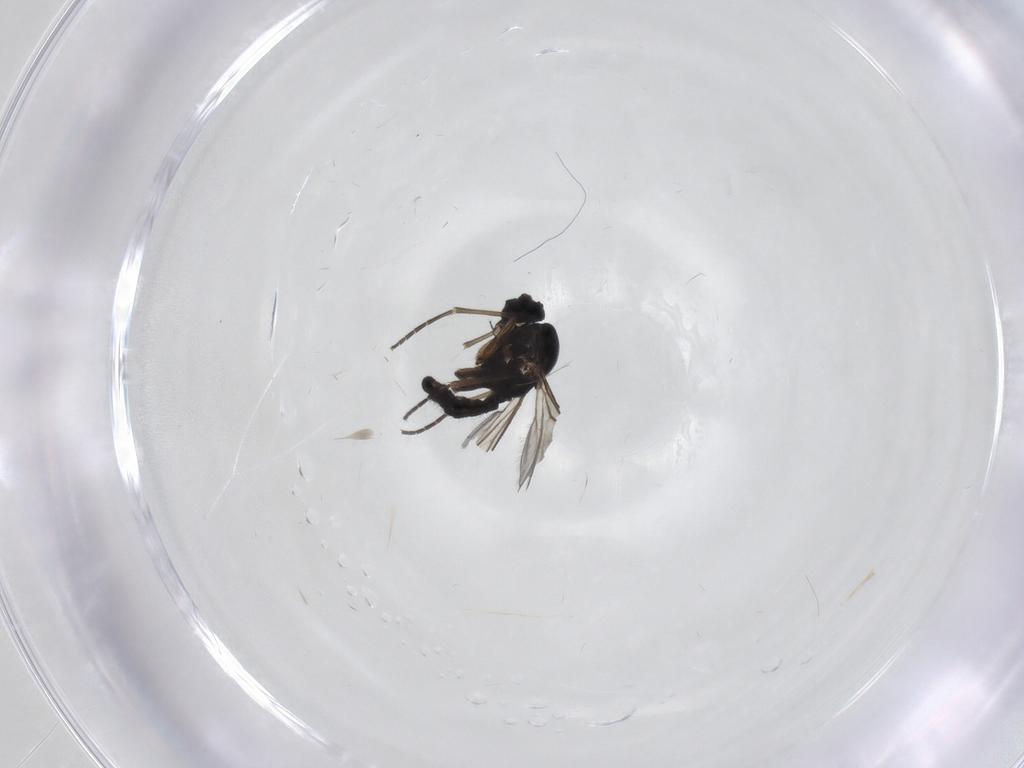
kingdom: Animalia
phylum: Arthropoda
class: Insecta
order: Diptera
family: Sciaridae
